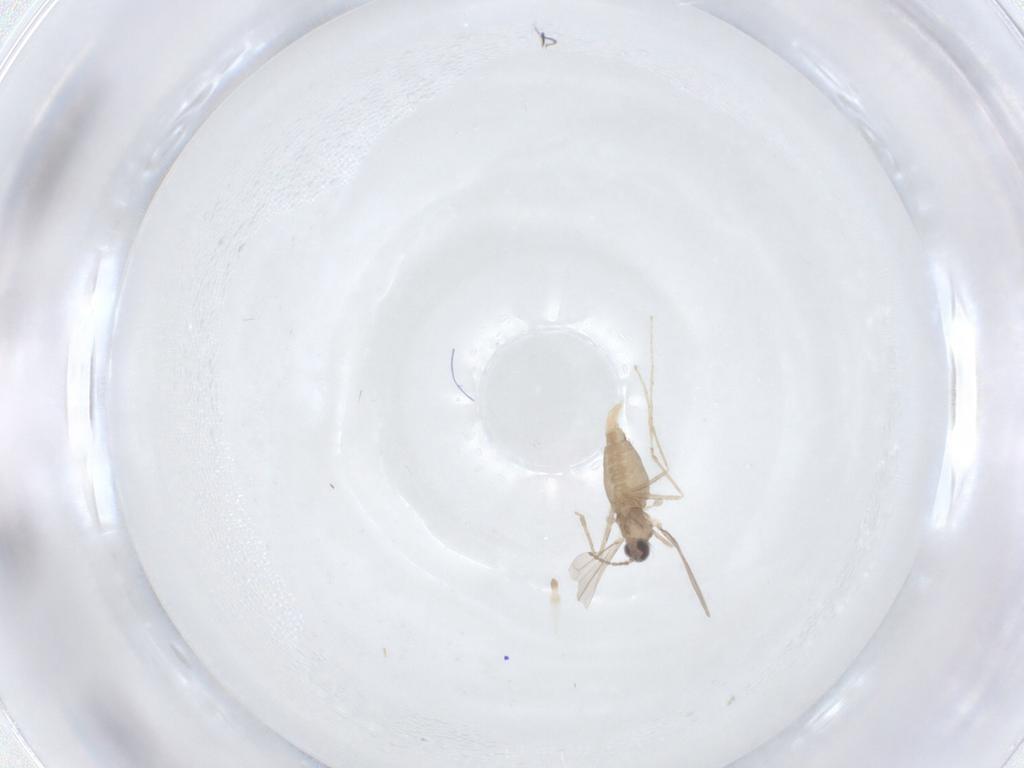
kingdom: Animalia
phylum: Arthropoda
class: Insecta
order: Diptera
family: Cecidomyiidae
